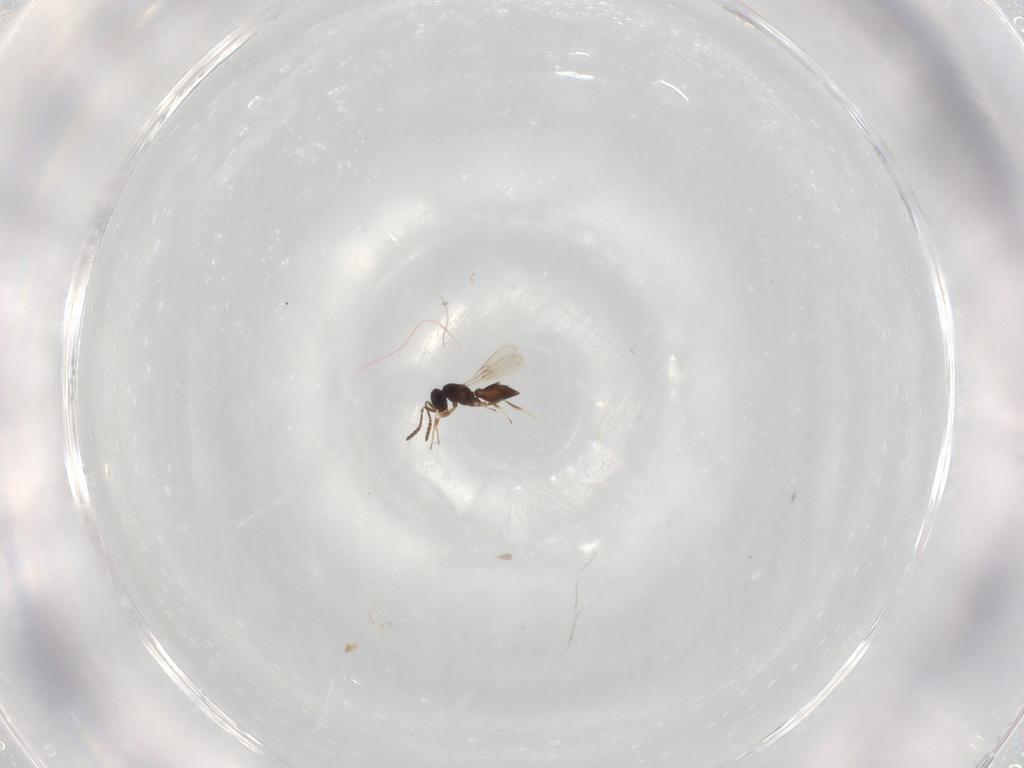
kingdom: Animalia
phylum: Arthropoda
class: Insecta
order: Hymenoptera
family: Scelionidae
